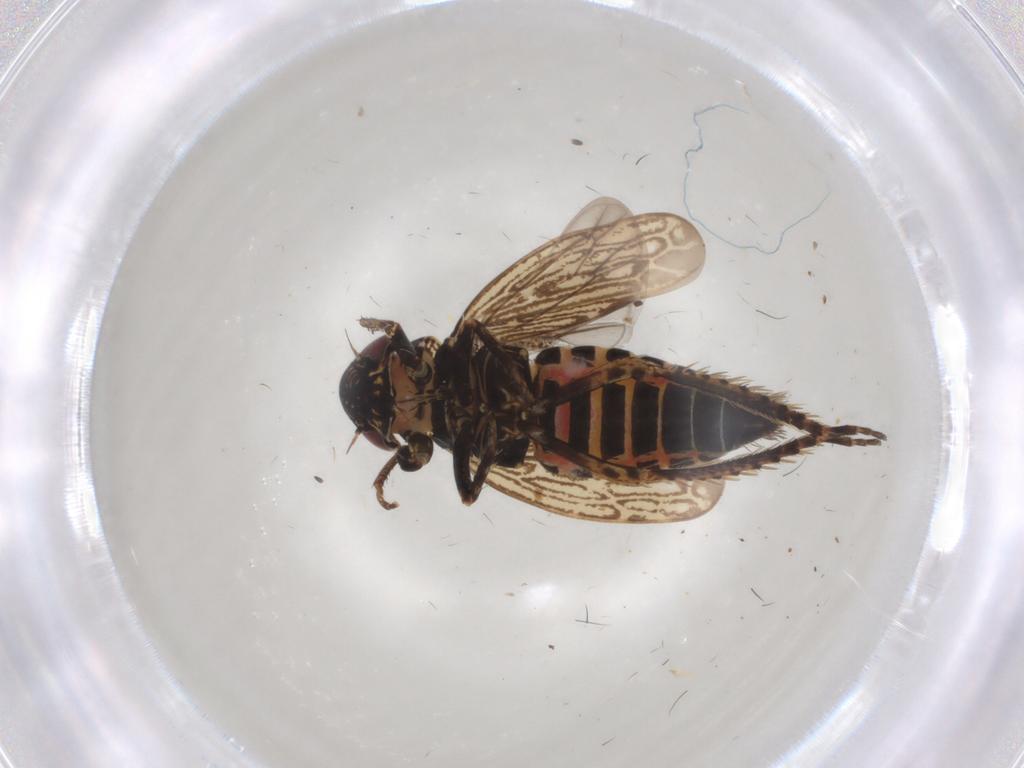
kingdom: Animalia
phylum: Arthropoda
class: Insecta
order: Hemiptera
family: Cicadellidae
